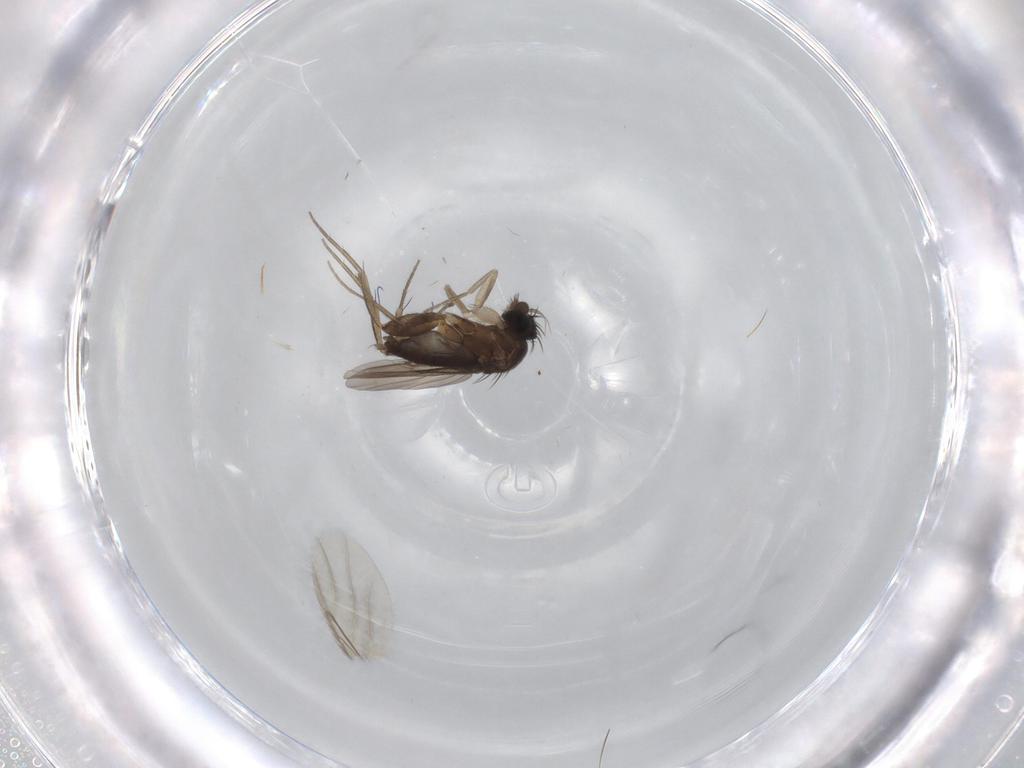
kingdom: Animalia
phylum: Arthropoda
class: Insecta
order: Diptera
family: Phoridae
